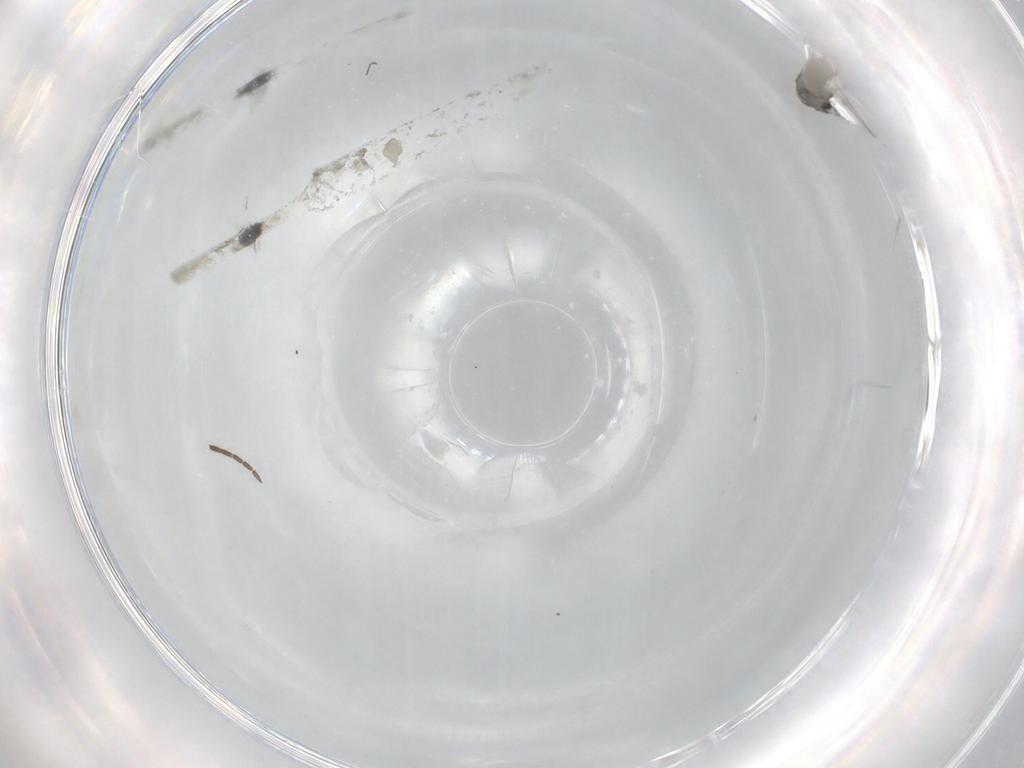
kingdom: Animalia
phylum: Arthropoda
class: Insecta
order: Diptera
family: Cecidomyiidae
